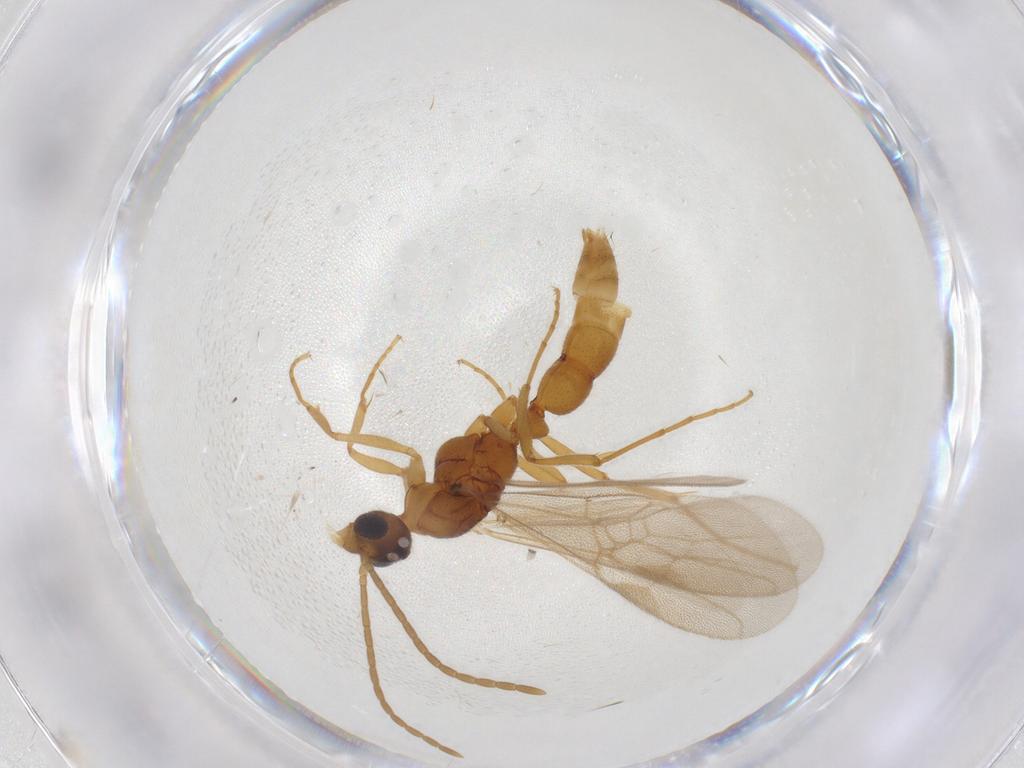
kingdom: Animalia
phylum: Arthropoda
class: Insecta
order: Hymenoptera
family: Formicidae
